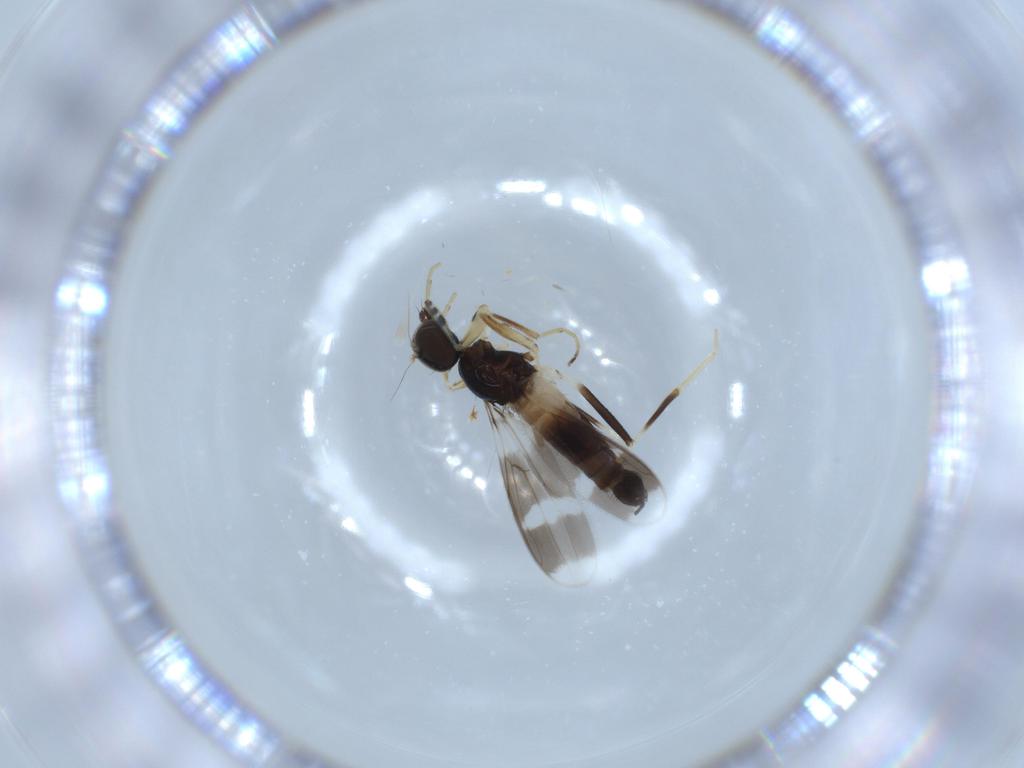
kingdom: Animalia
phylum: Arthropoda
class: Insecta
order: Diptera
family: Hybotidae
